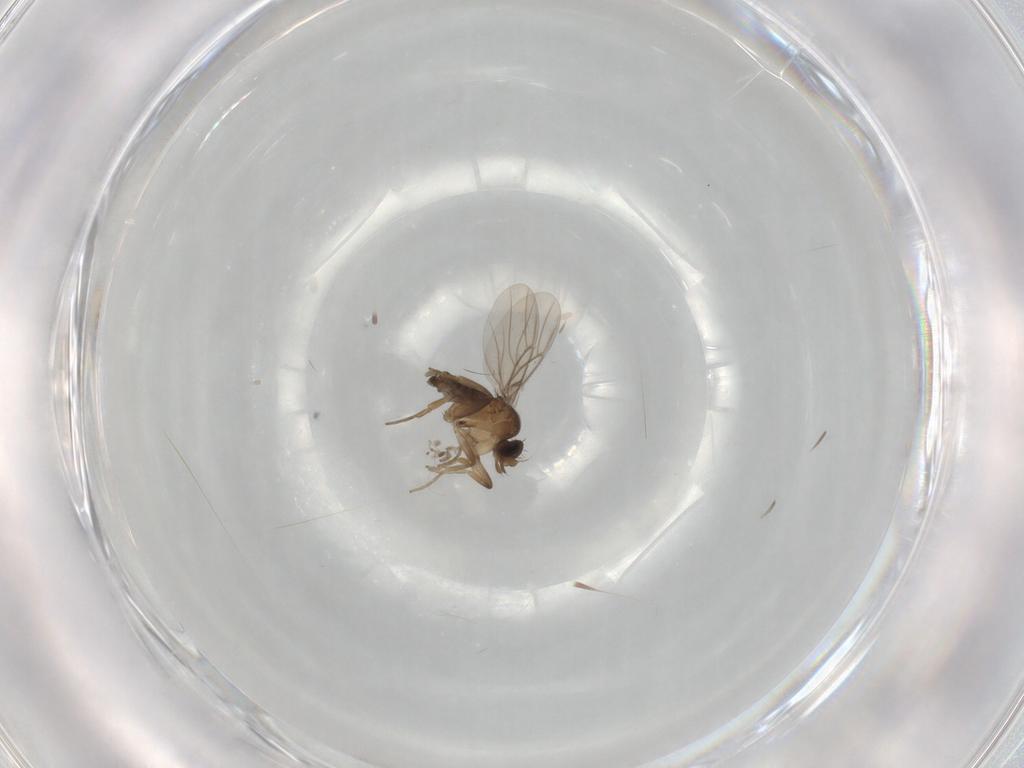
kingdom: Animalia
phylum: Arthropoda
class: Insecta
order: Diptera
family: Phoridae
